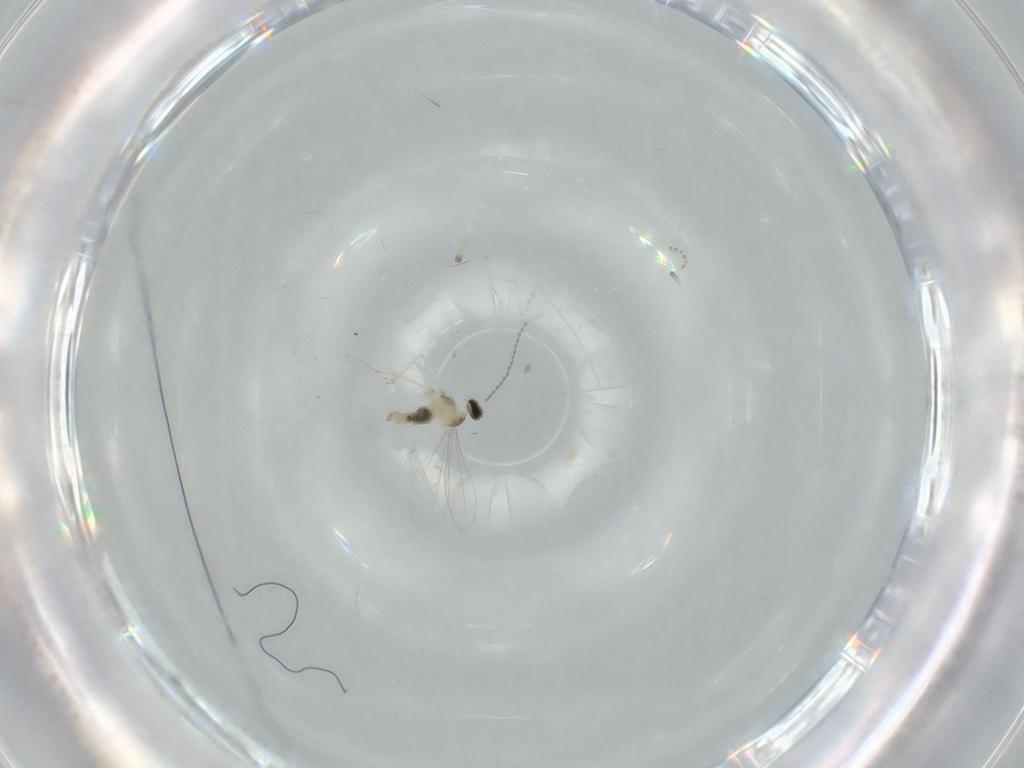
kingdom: Animalia
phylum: Arthropoda
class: Insecta
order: Diptera
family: Cecidomyiidae
